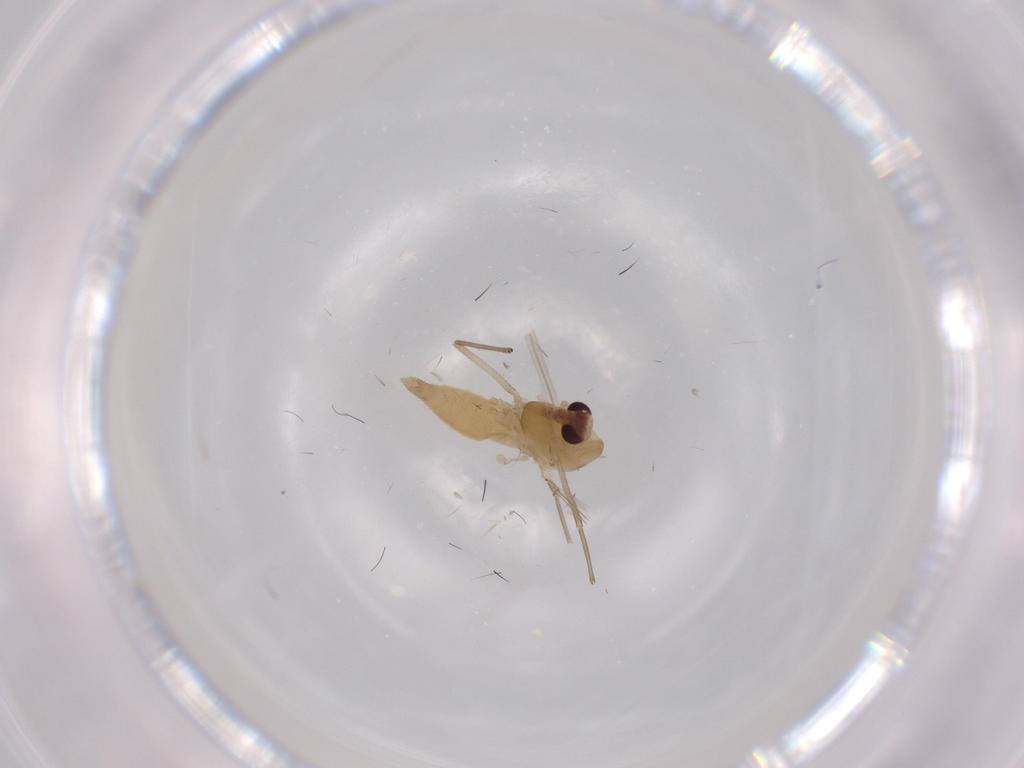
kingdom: Animalia
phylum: Arthropoda
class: Insecta
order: Diptera
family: Chironomidae
